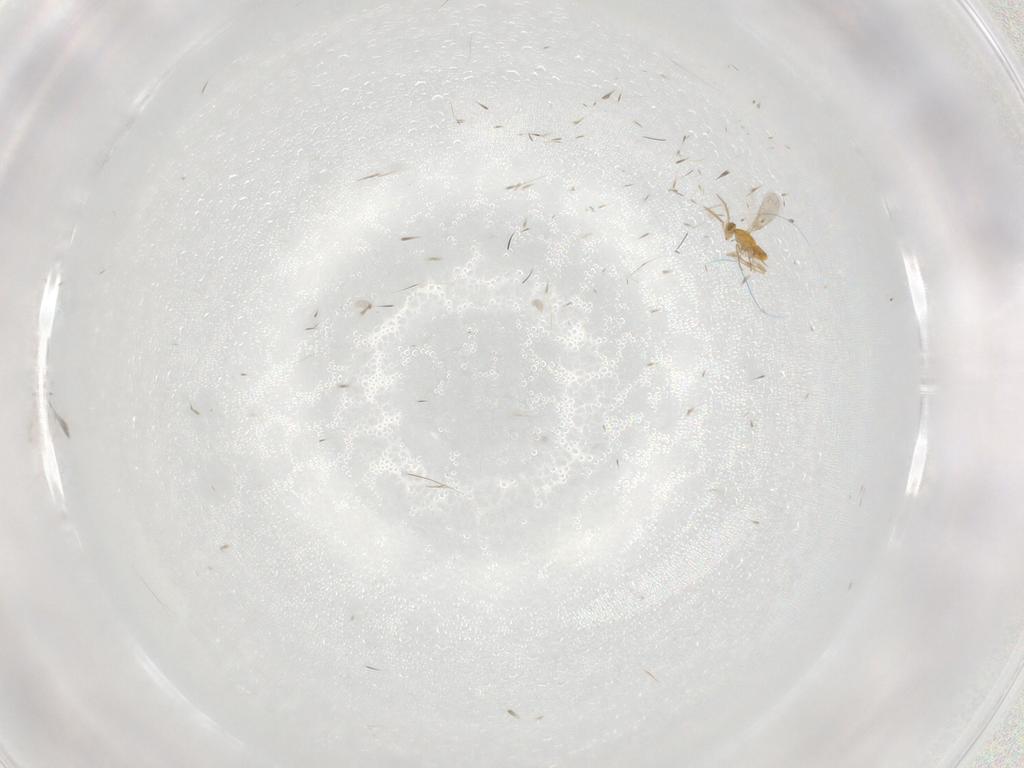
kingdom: Animalia
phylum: Arthropoda
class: Insecta
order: Hymenoptera
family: Aphelinidae
